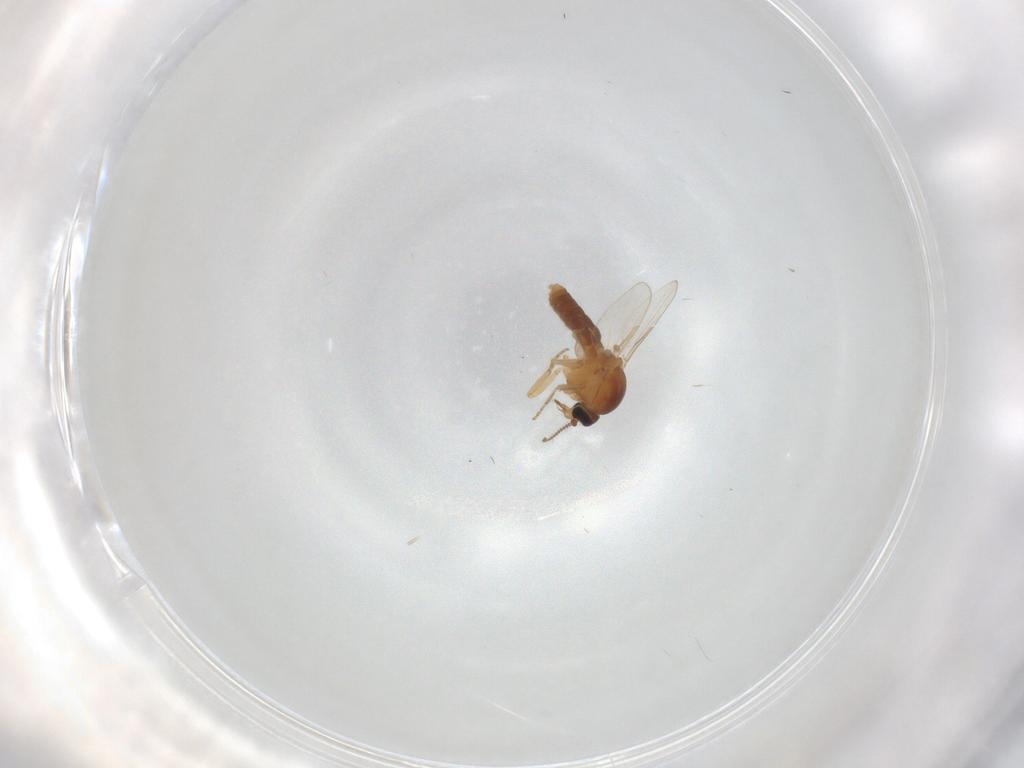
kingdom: Animalia
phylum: Arthropoda
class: Insecta
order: Diptera
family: Ceratopogonidae
